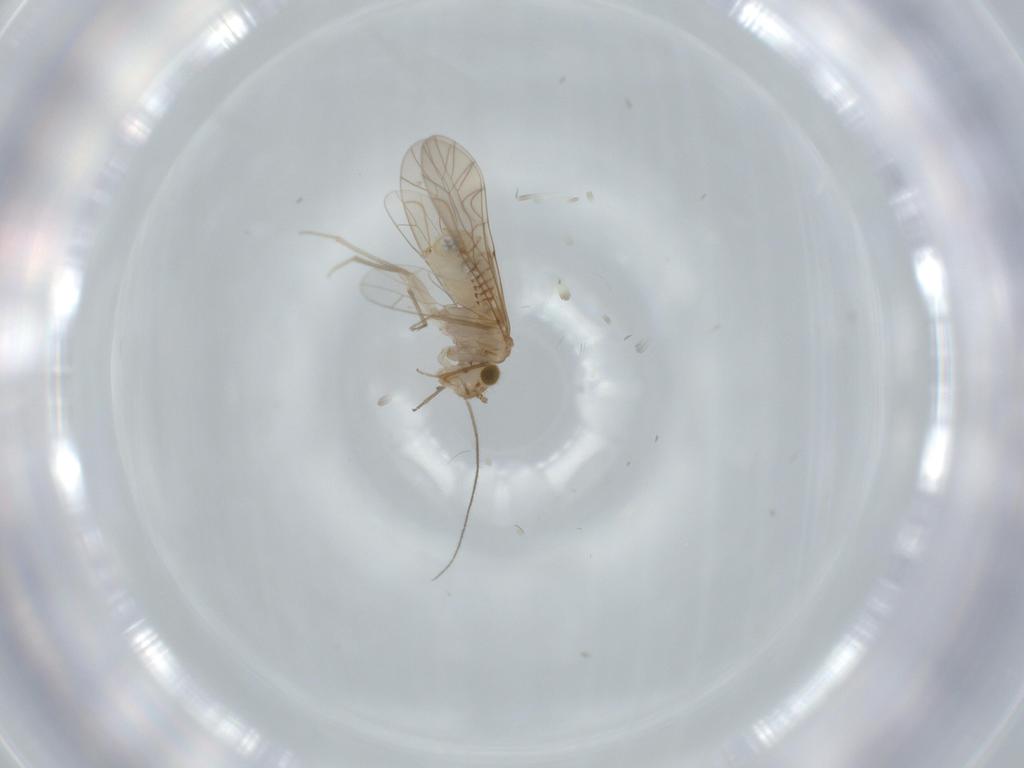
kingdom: Animalia
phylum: Arthropoda
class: Insecta
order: Psocodea
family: Lachesillidae
